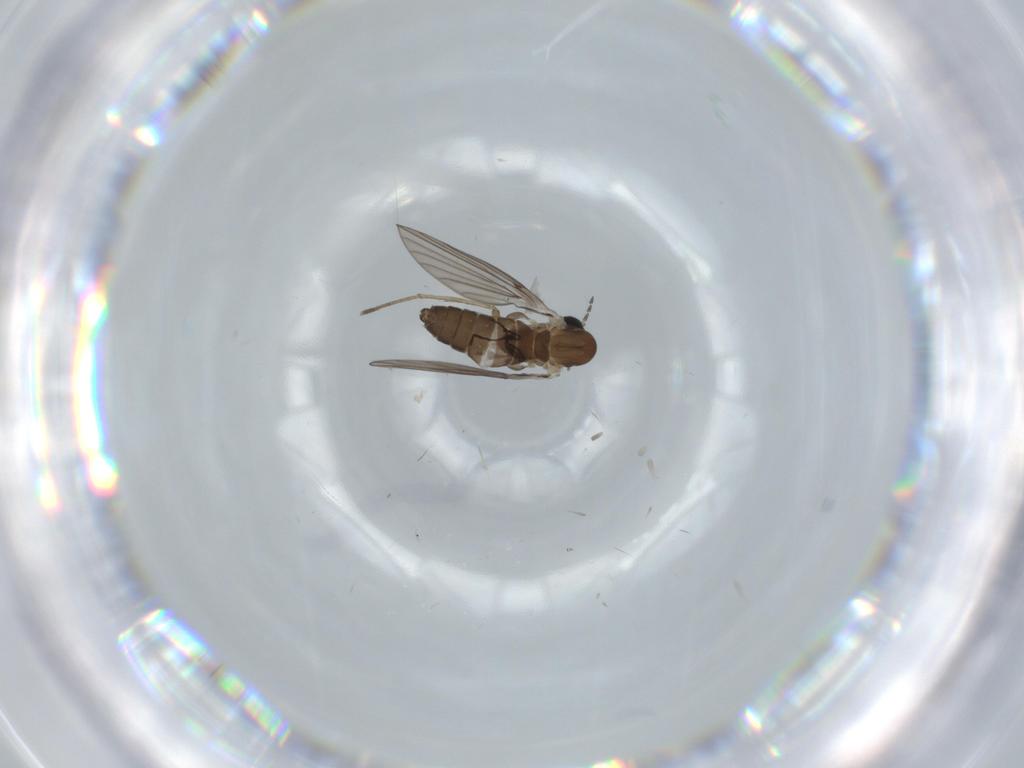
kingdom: Animalia
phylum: Arthropoda
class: Insecta
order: Diptera
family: Psychodidae
